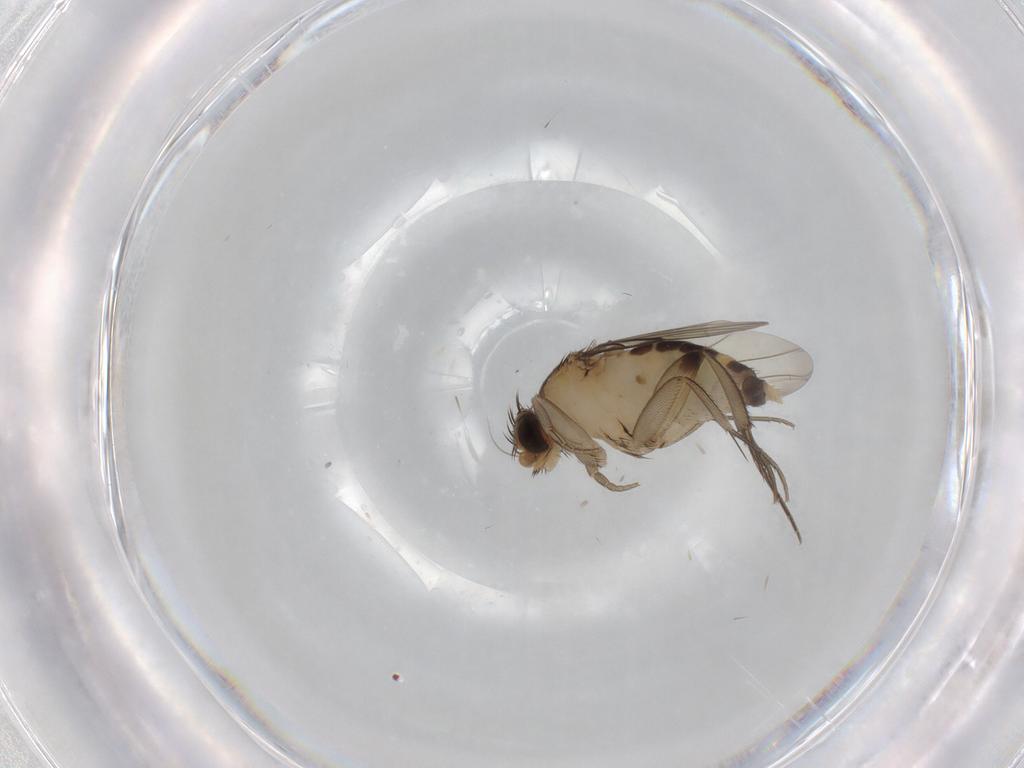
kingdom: Animalia
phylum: Arthropoda
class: Insecta
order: Diptera
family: Phoridae
